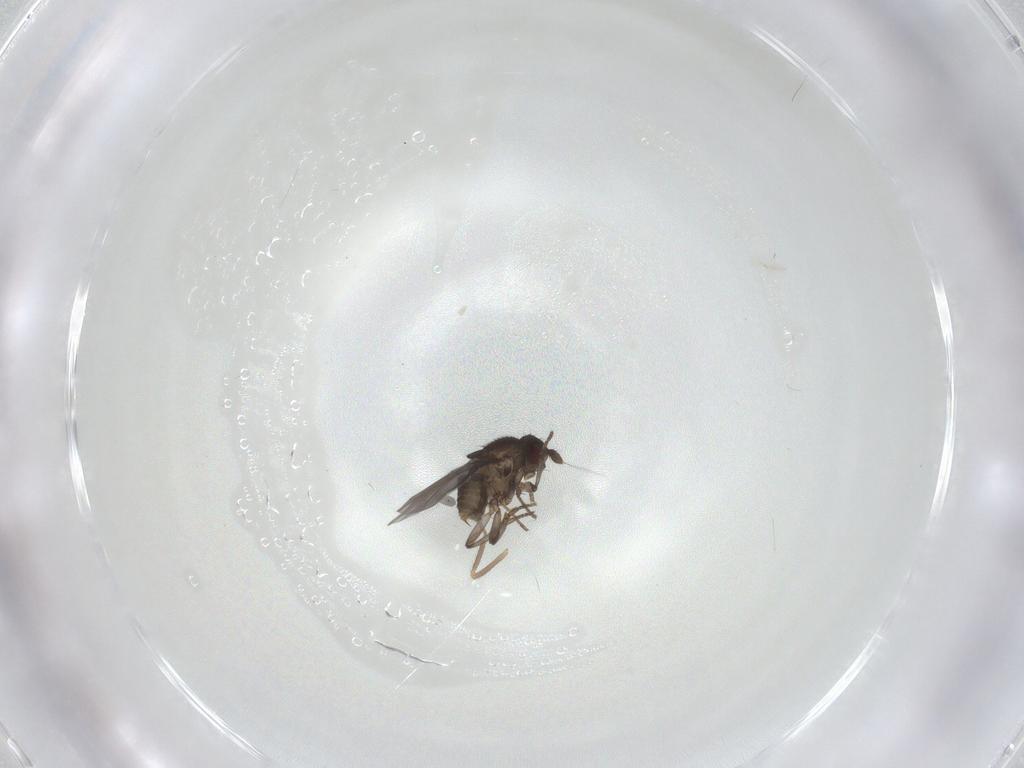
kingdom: Animalia
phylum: Arthropoda
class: Insecta
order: Diptera
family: Sphaeroceridae
